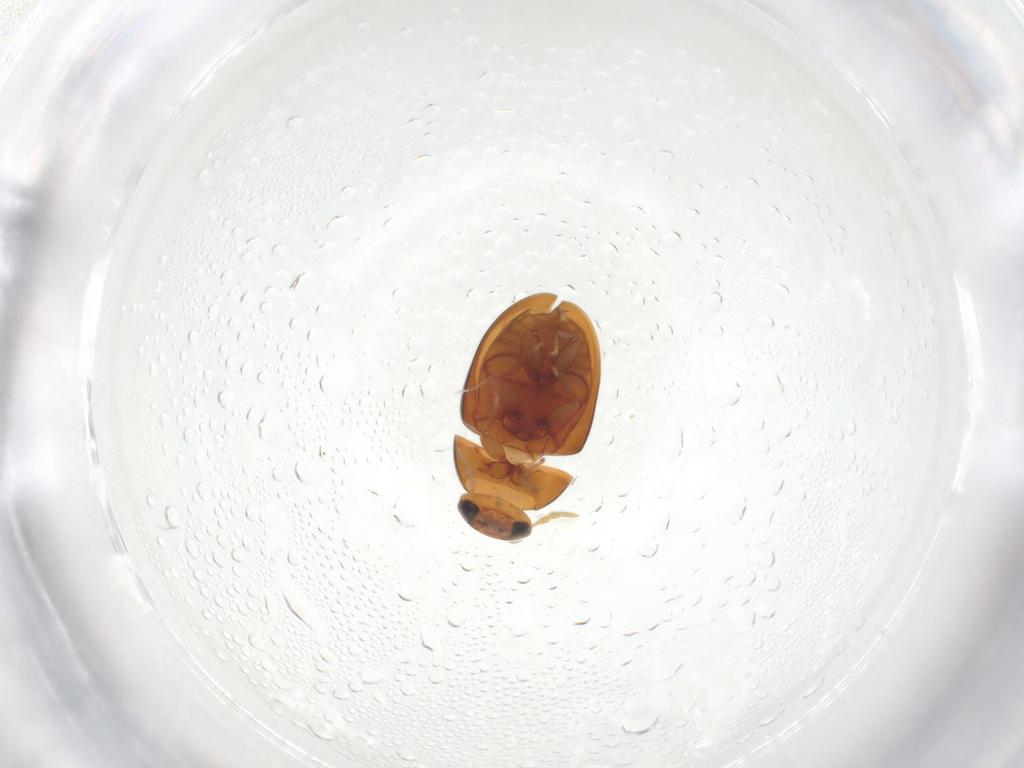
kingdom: Animalia
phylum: Arthropoda
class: Insecta
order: Coleoptera
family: Phalacridae
